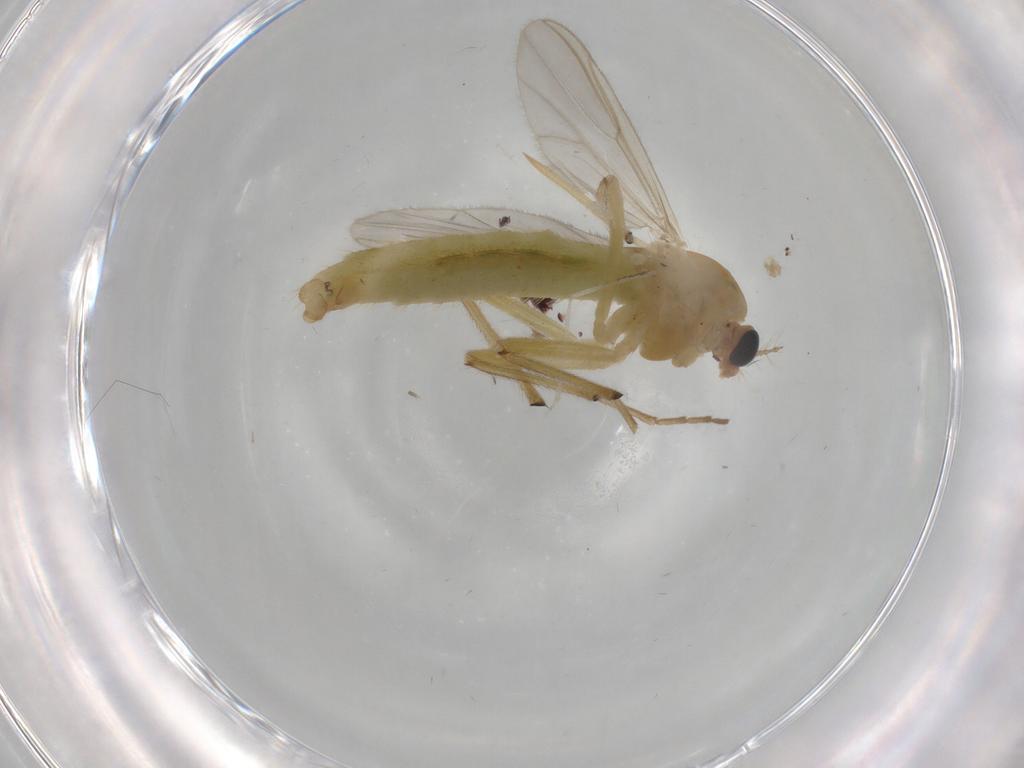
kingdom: Animalia
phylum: Arthropoda
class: Insecta
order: Diptera
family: Chironomidae
